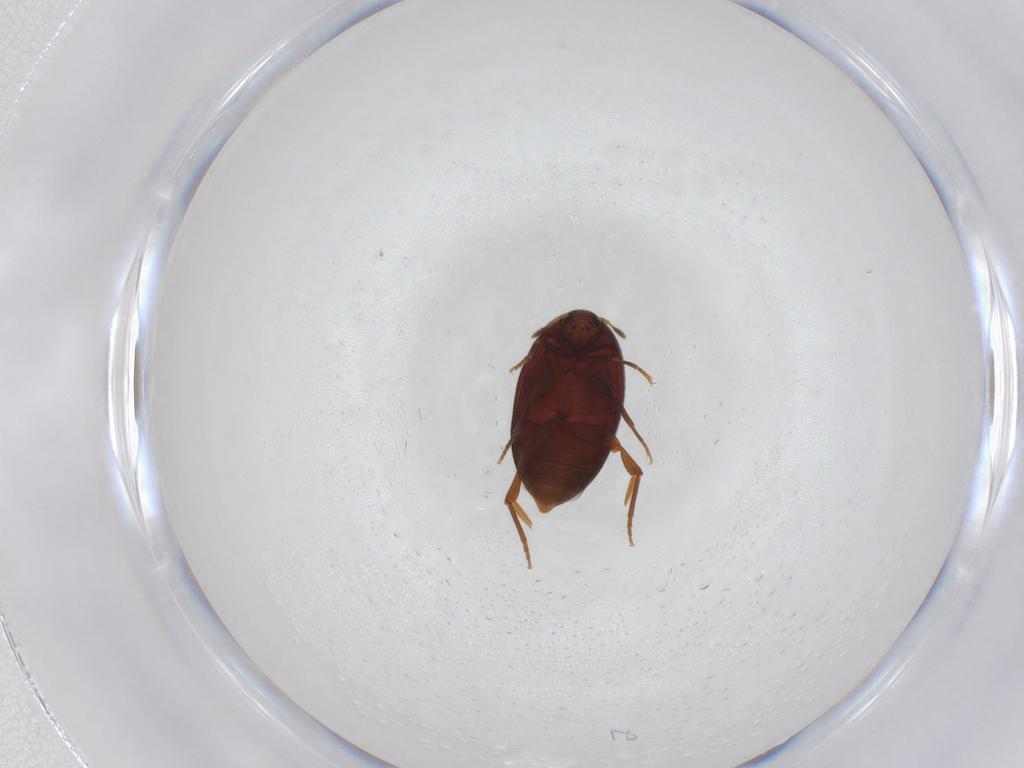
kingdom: Animalia
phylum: Arthropoda
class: Insecta
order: Coleoptera
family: Melandryidae
